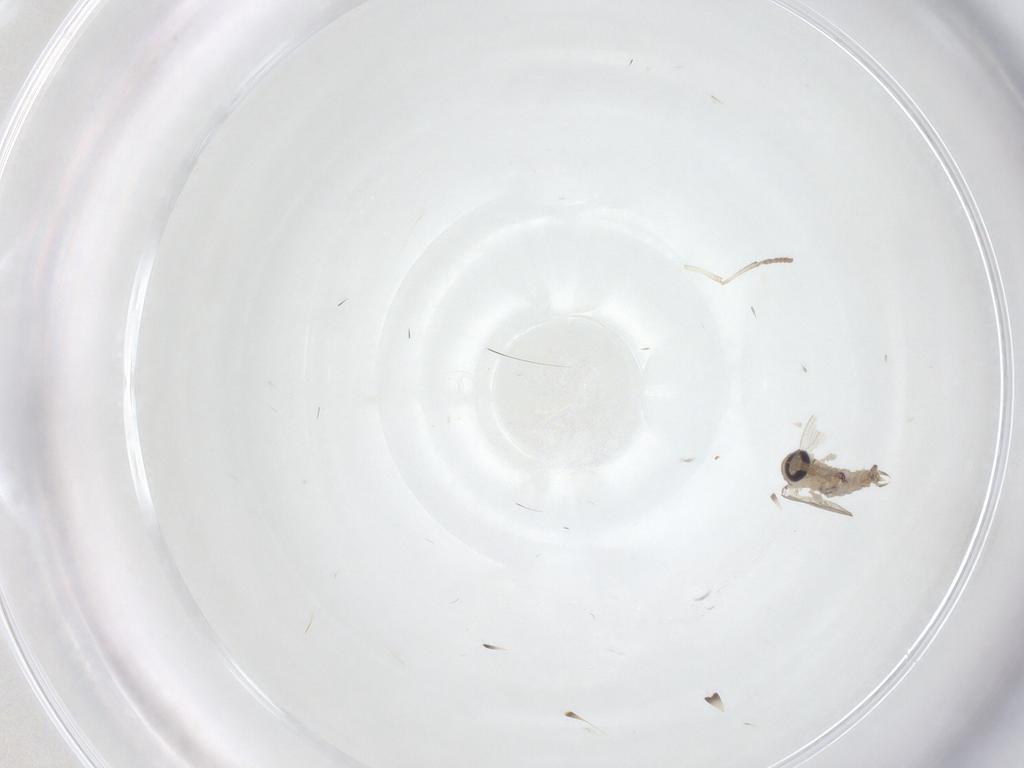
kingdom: Animalia
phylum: Arthropoda
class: Insecta
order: Diptera
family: Psychodidae
